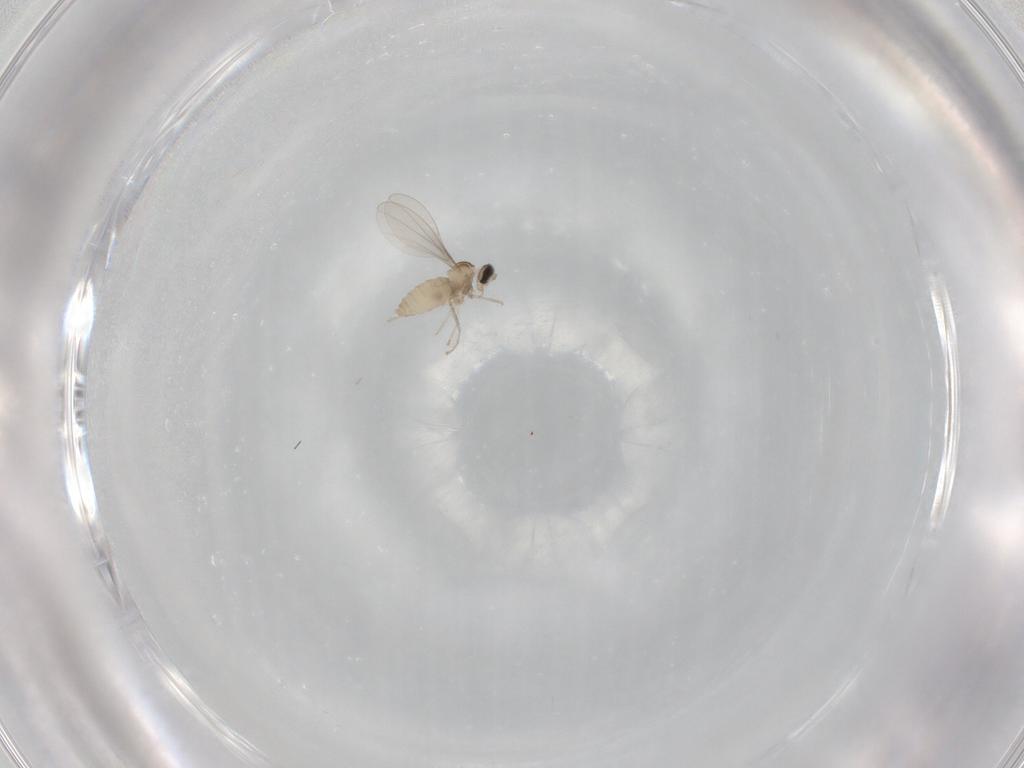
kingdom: Animalia
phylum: Arthropoda
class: Insecta
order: Diptera
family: Cecidomyiidae
